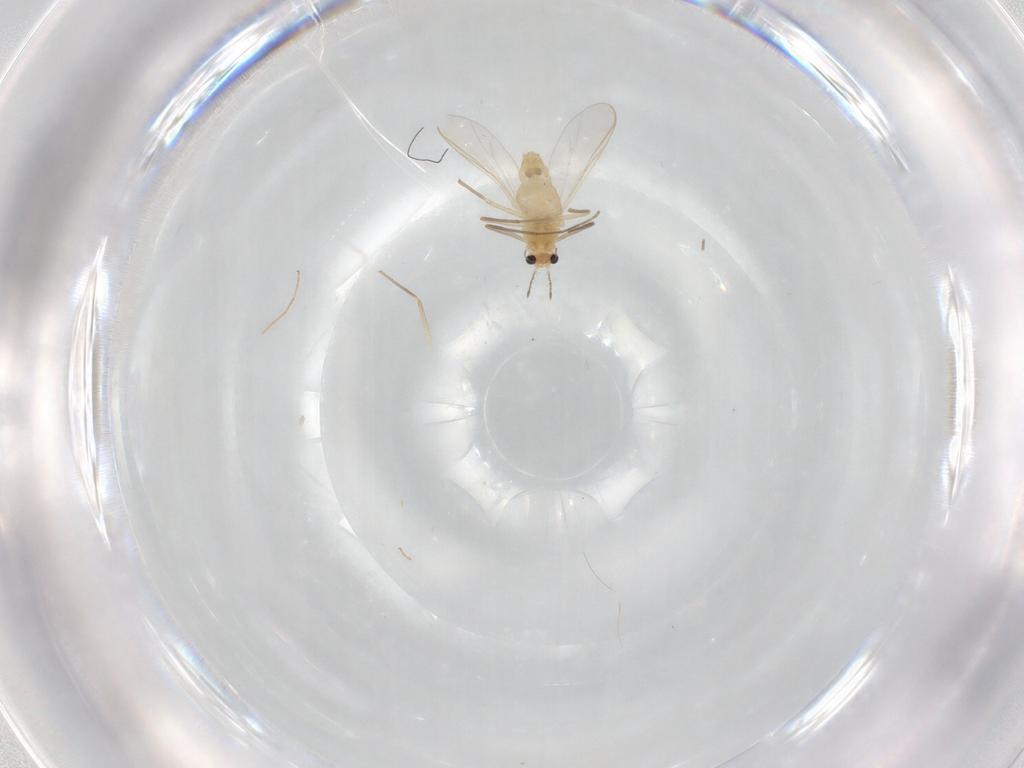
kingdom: Animalia
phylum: Arthropoda
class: Insecta
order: Diptera
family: Chironomidae
